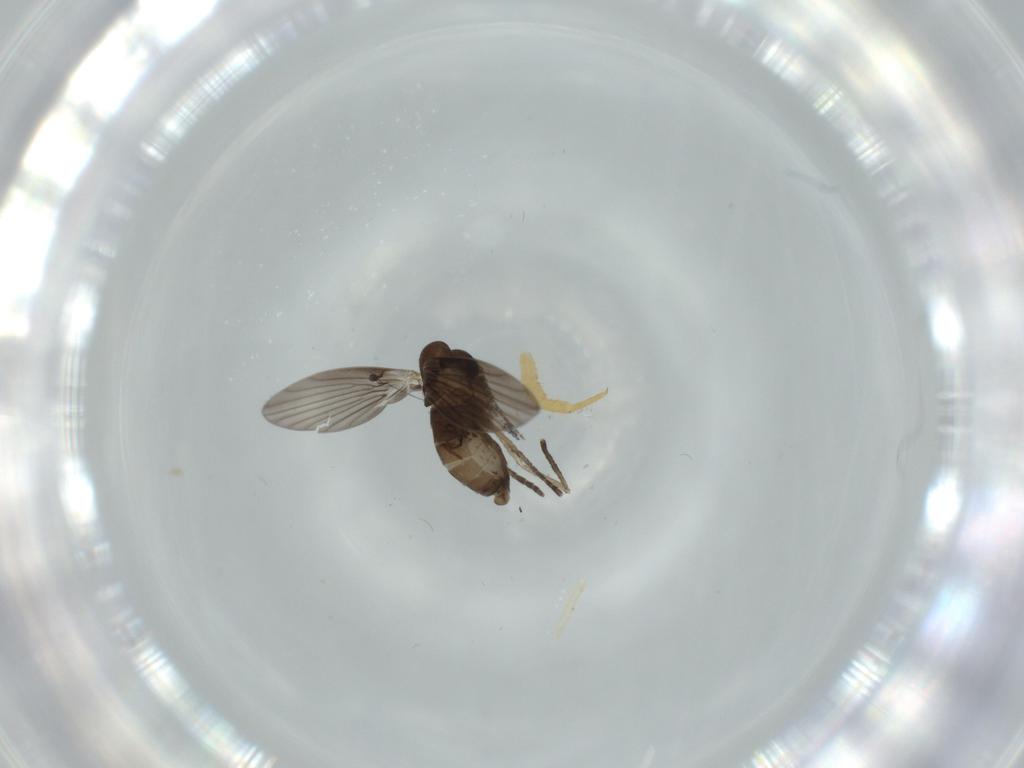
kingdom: Animalia
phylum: Arthropoda
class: Insecta
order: Diptera
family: Psychodidae
